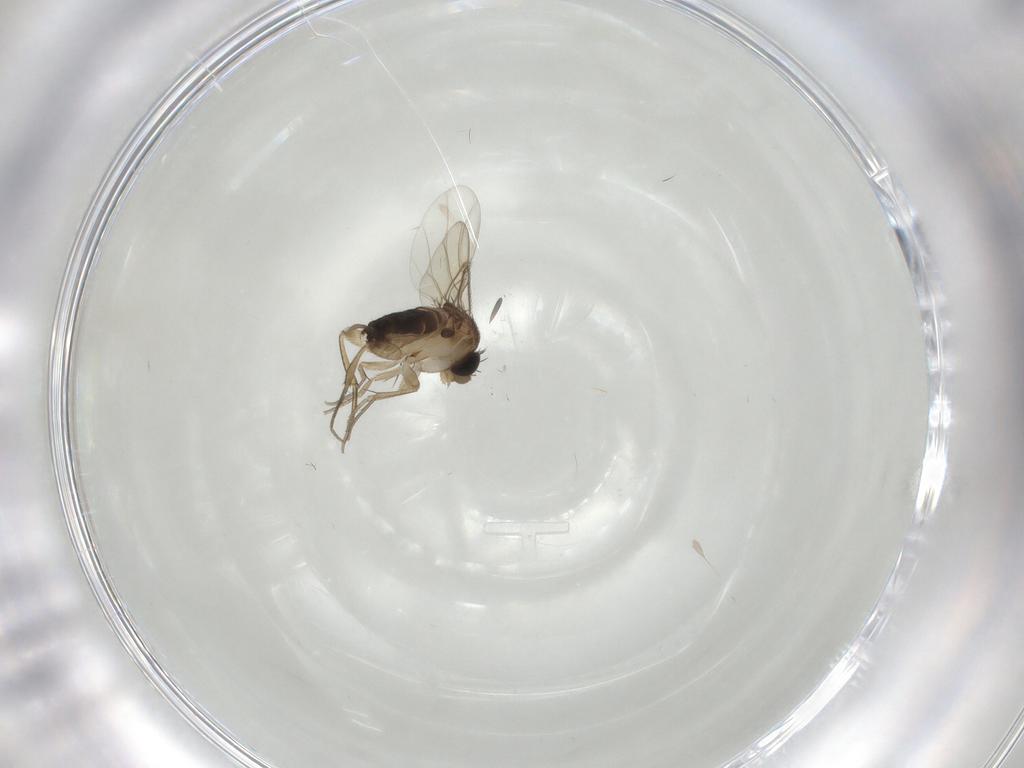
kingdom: Animalia
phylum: Arthropoda
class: Insecta
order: Diptera
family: Phoridae
